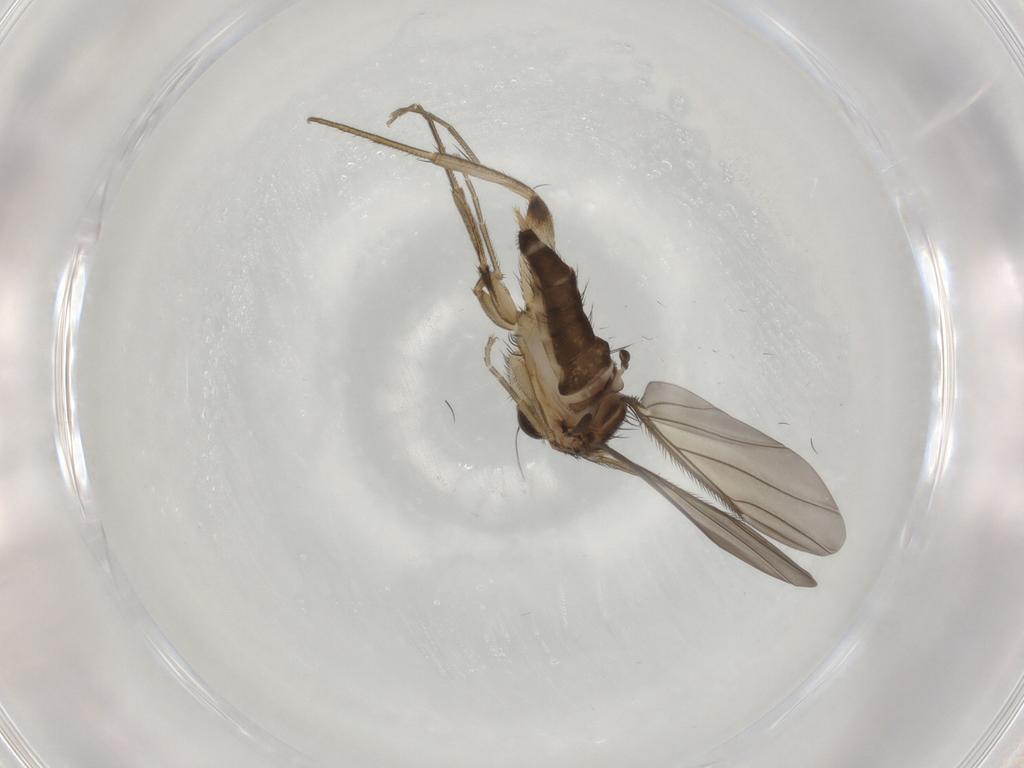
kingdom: Animalia
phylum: Arthropoda
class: Insecta
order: Diptera
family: Phoridae
